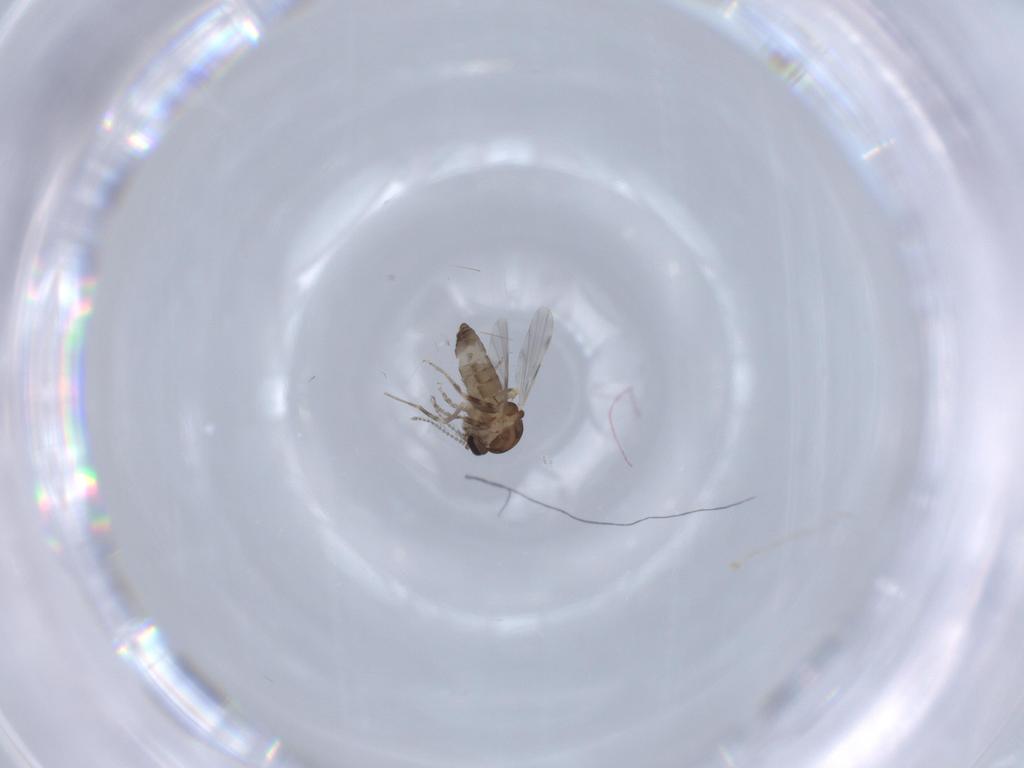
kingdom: Animalia
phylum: Arthropoda
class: Insecta
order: Diptera
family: Ceratopogonidae
